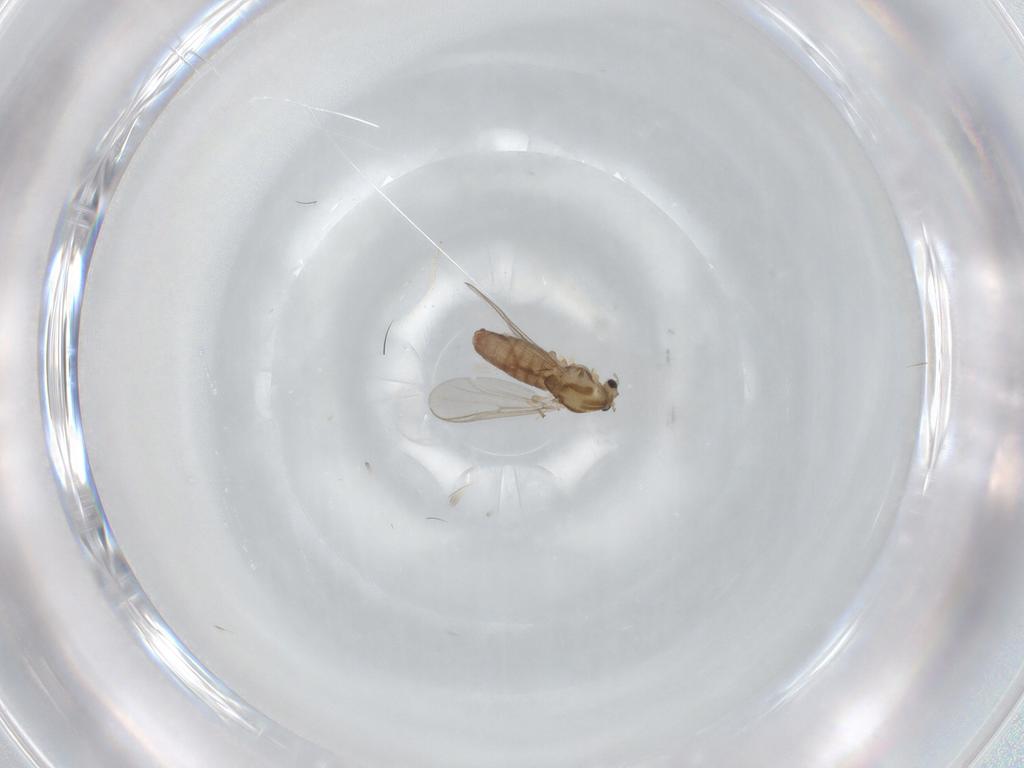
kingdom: Animalia
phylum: Arthropoda
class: Insecta
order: Diptera
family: Chironomidae
